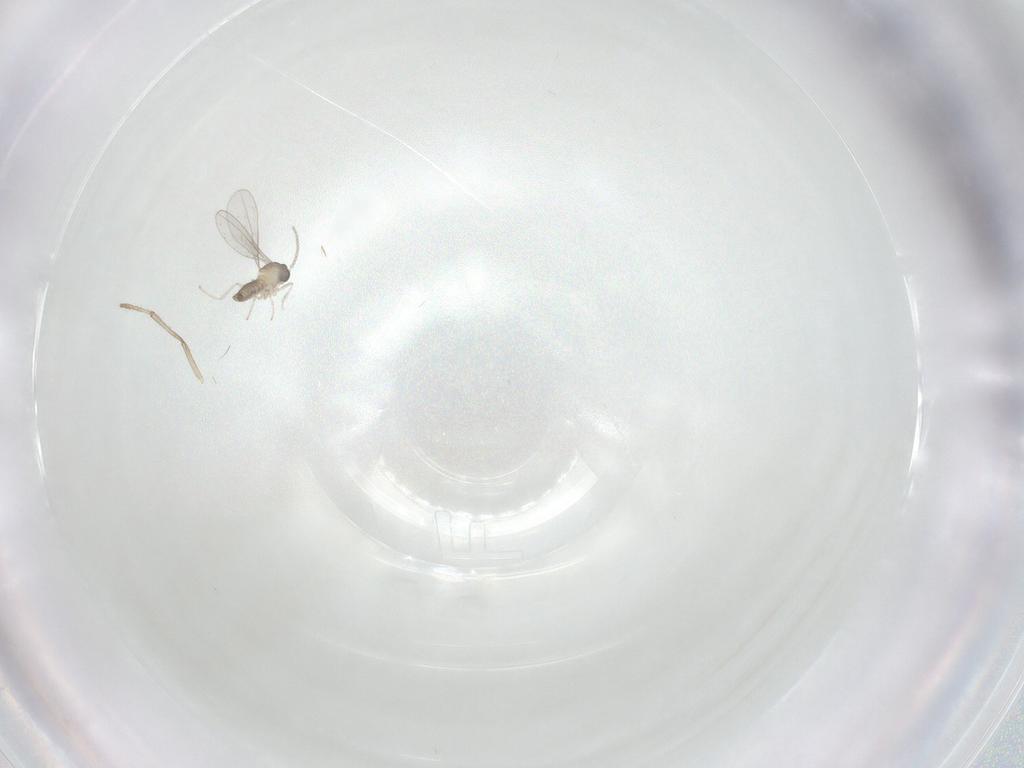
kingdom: Animalia
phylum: Arthropoda
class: Insecta
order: Diptera
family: Cecidomyiidae
